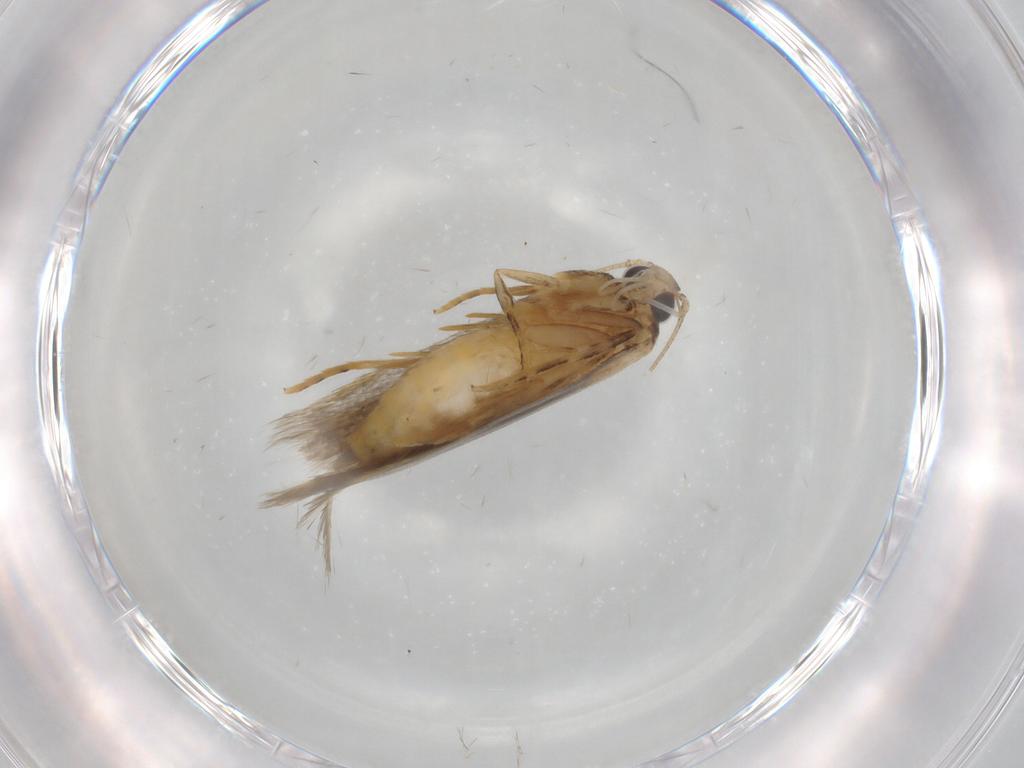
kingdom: Animalia
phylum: Arthropoda
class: Insecta
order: Lepidoptera
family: Autostichidae
